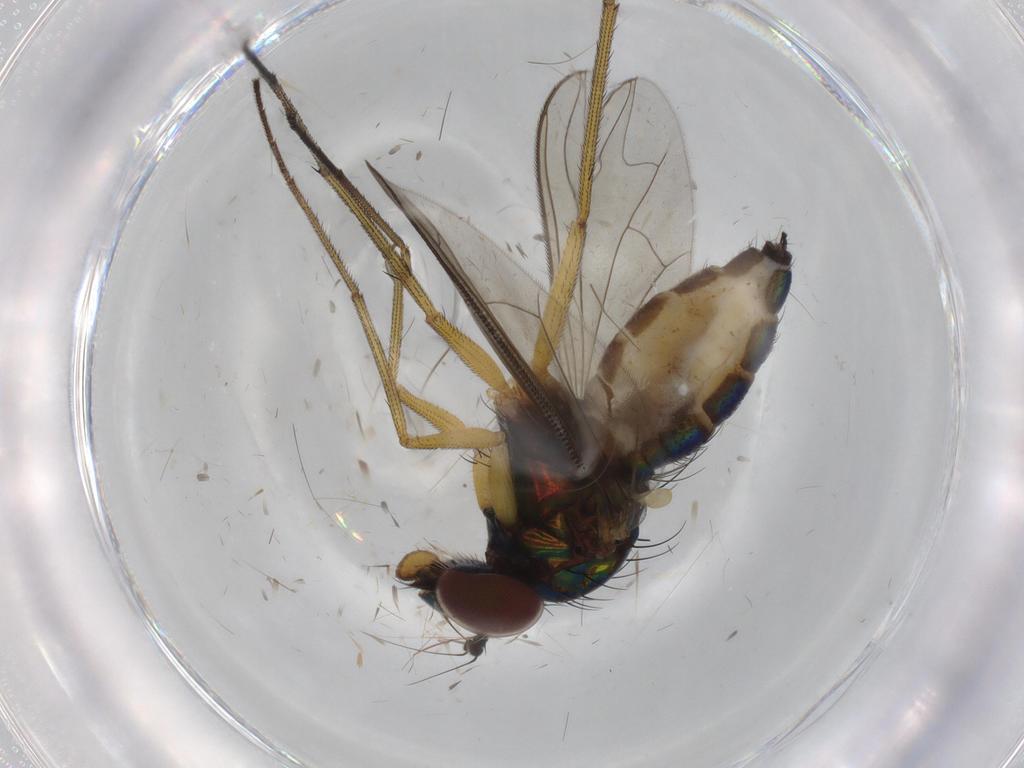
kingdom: Animalia
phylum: Arthropoda
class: Insecta
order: Diptera
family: Dolichopodidae
